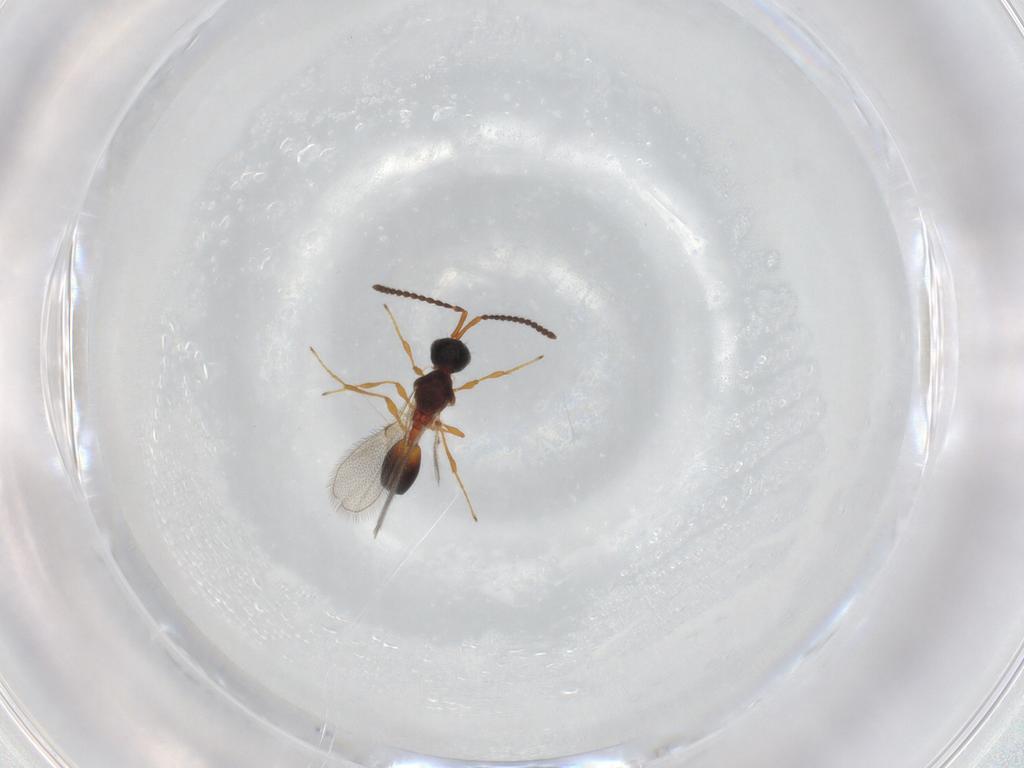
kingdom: Animalia
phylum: Arthropoda
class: Insecta
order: Hymenoptera
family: Diapriidae
